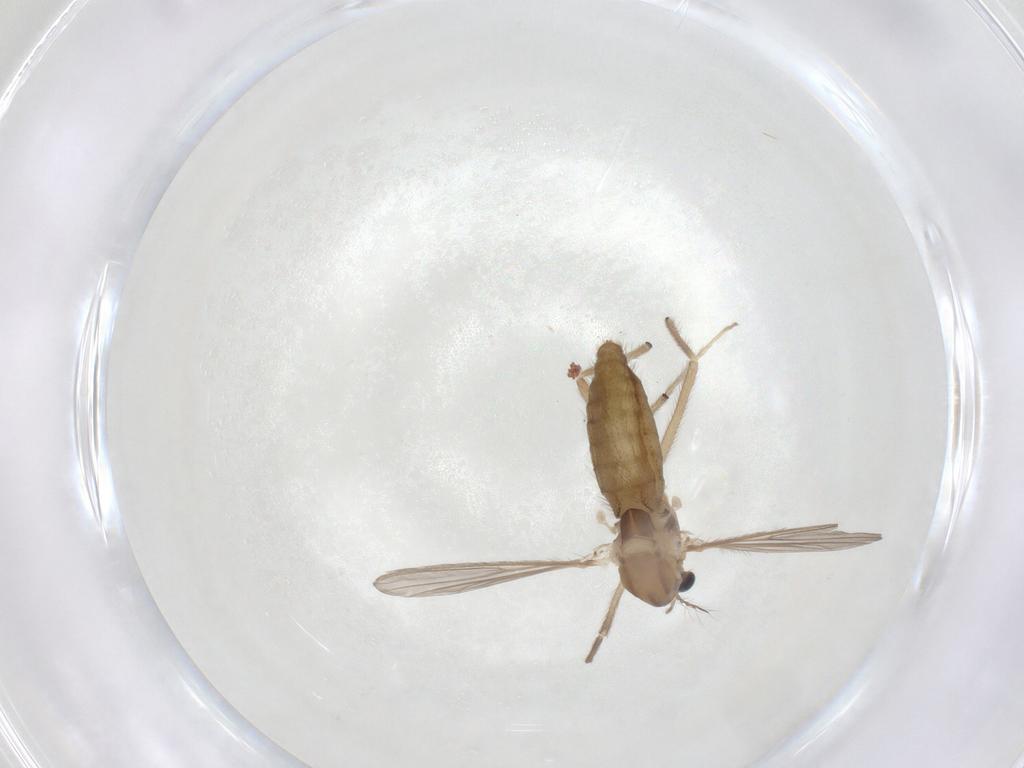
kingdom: Animalia
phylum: Arthropoda
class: Insecta
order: Diptera
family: Chironomidae
